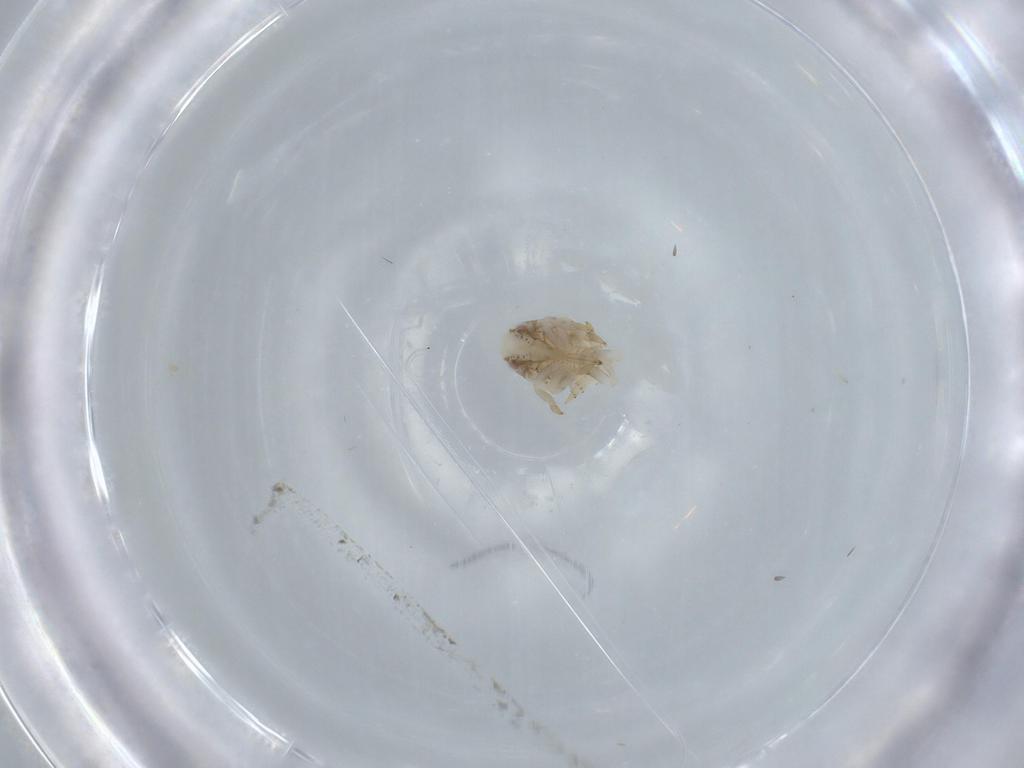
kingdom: Animalia
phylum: Arthropoda
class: Insecta
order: Hemiptera
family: Acanaloniidae
